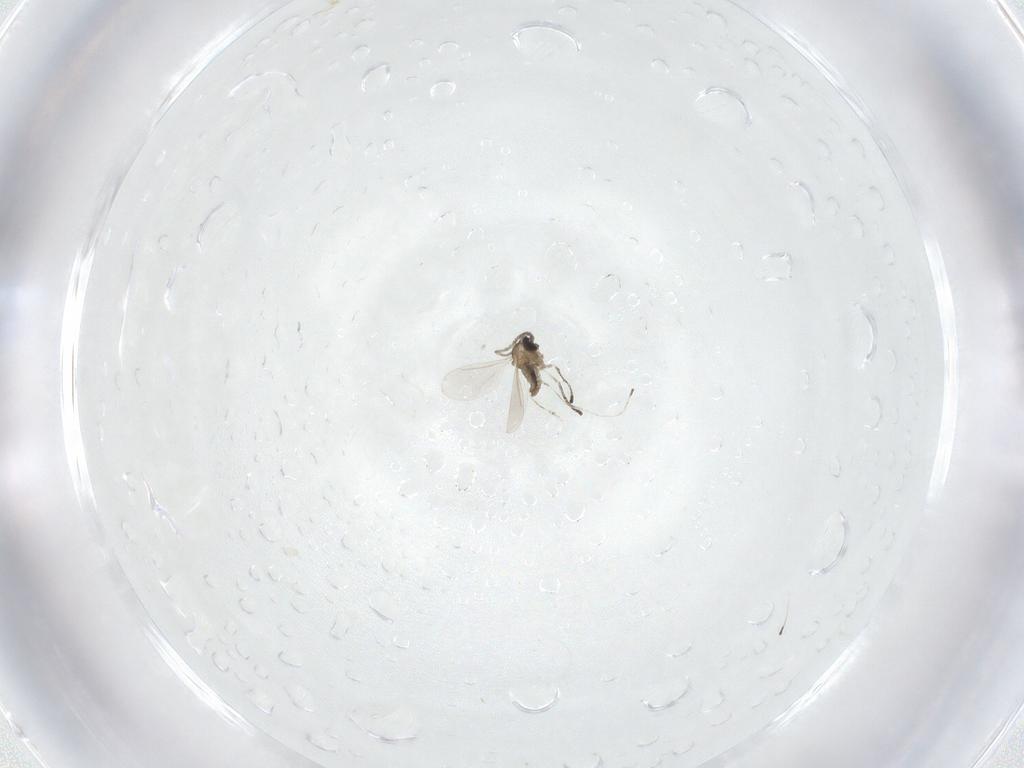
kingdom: Animalia
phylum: Arthropoda
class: Insecta
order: Diptera
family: Cecidomyiidae
